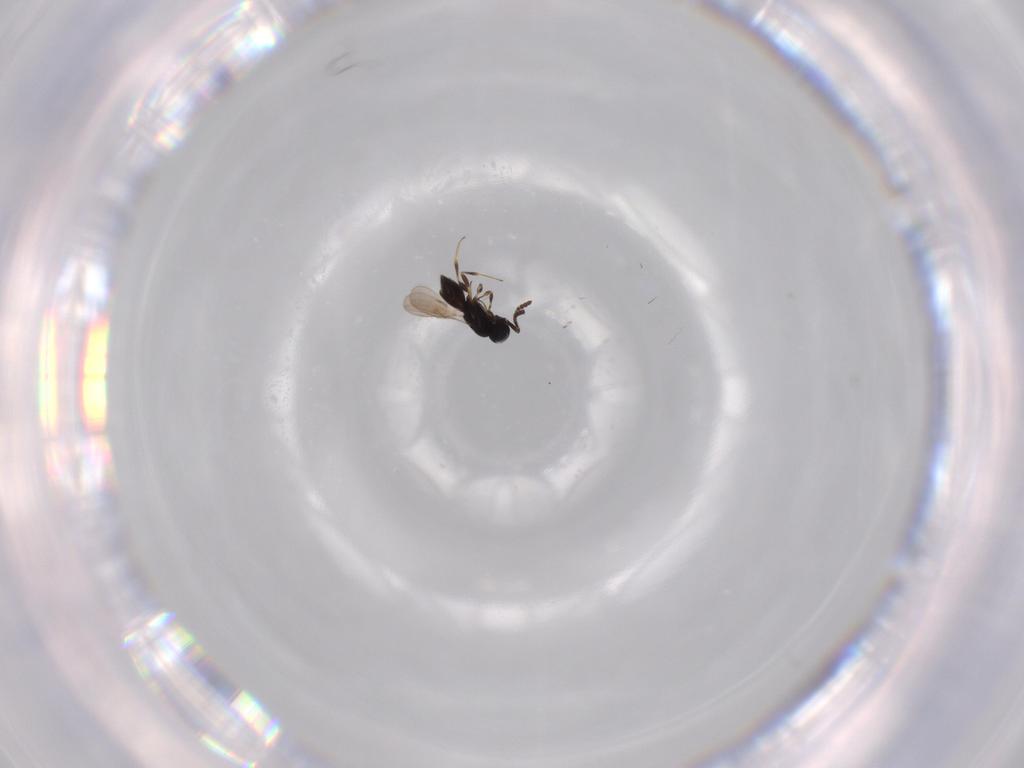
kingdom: Animalia
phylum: Arthropoda
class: Insecta
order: Hymenoptera
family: Scelionidae
